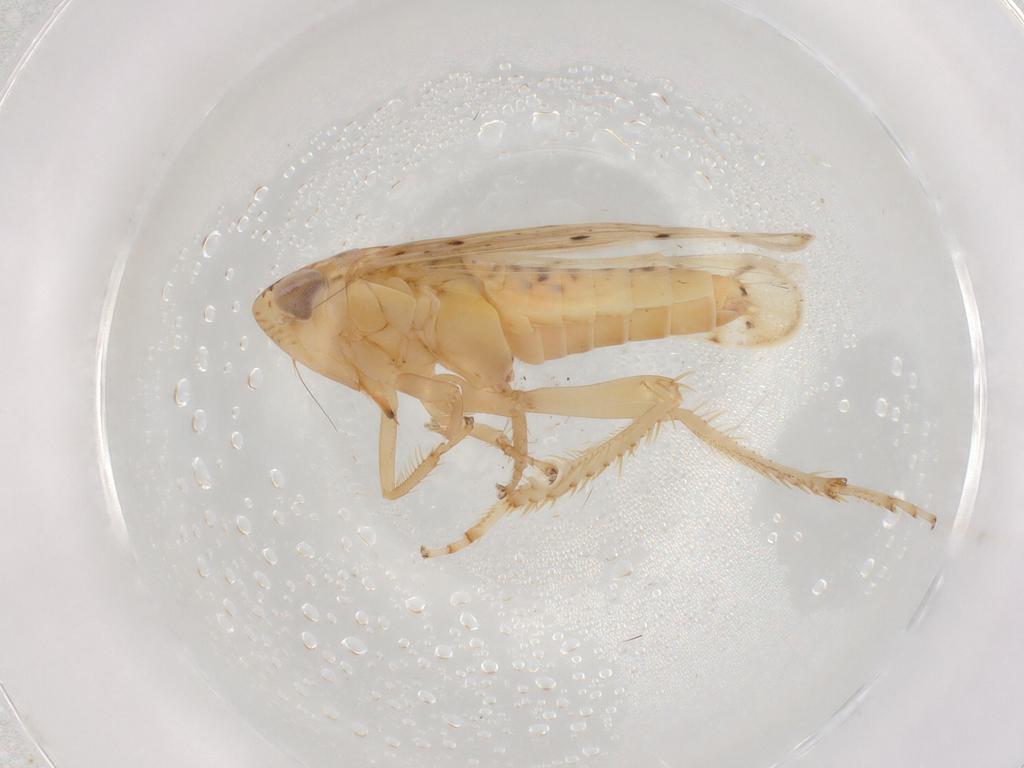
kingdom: Animalia
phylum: Arthropoda
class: Insecta
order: Hemiptera
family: Cicadellidae
